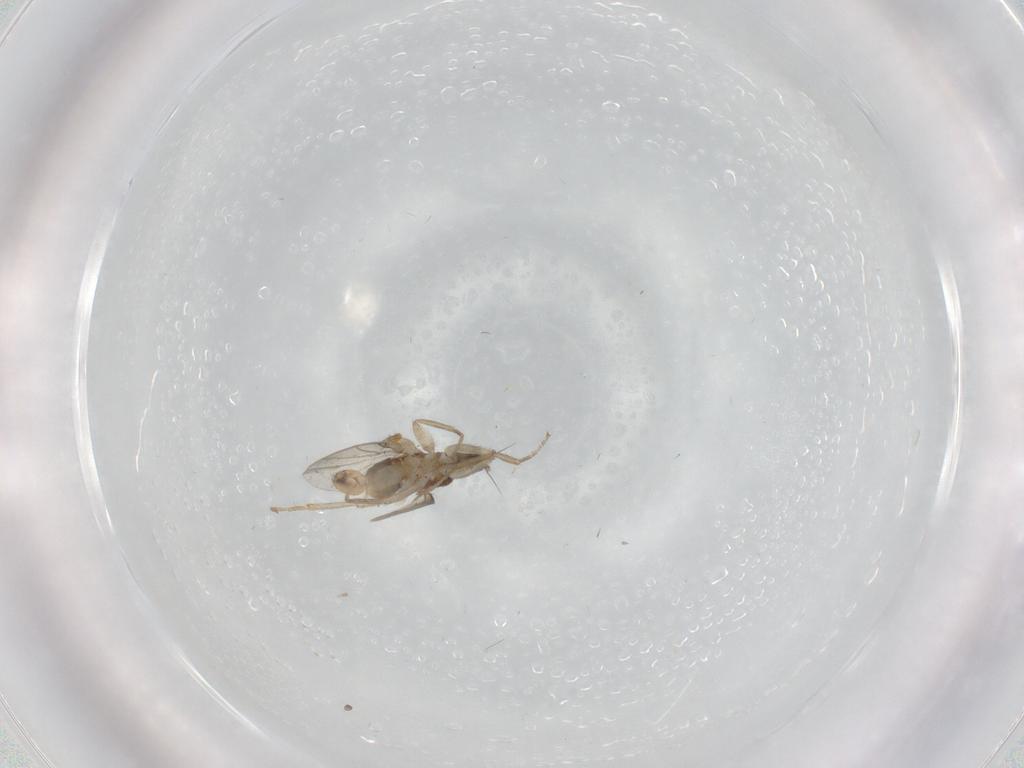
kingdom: Animalia
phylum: Arthropoda
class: Insecta
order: Diptera
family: Hybotidae
